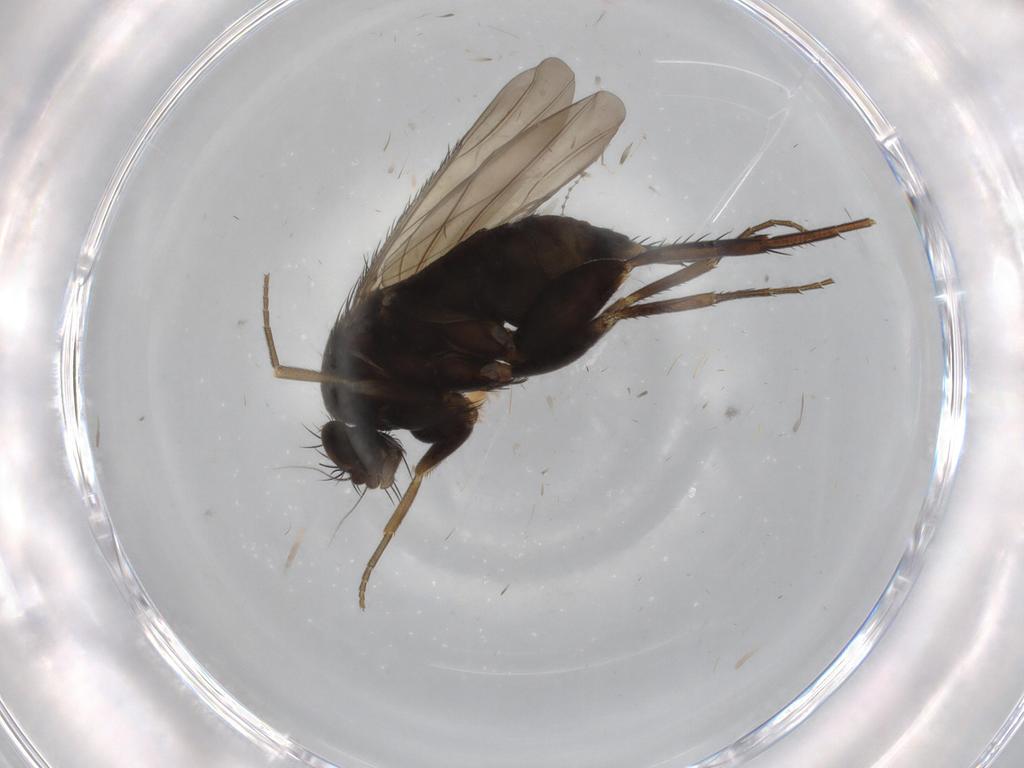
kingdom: Animalia
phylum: Arthropoda
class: Insecta
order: Diptera
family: Phoridae
